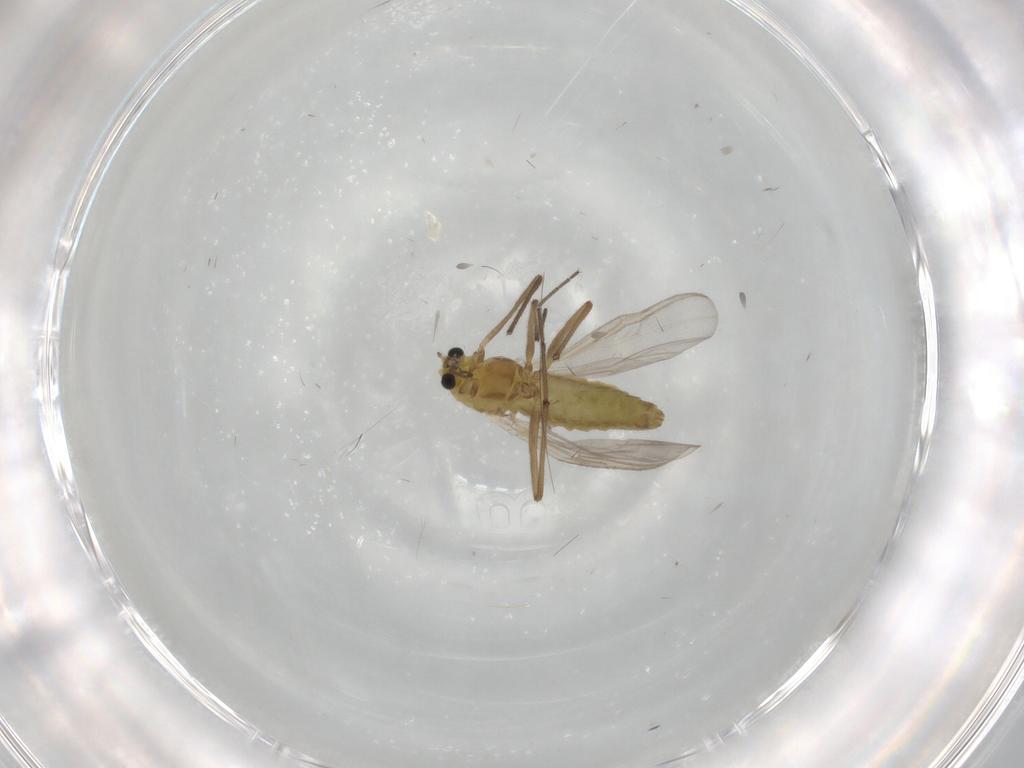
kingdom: Animalia
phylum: Arthropoda
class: Insecta
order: Diptera
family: Chironomidae
